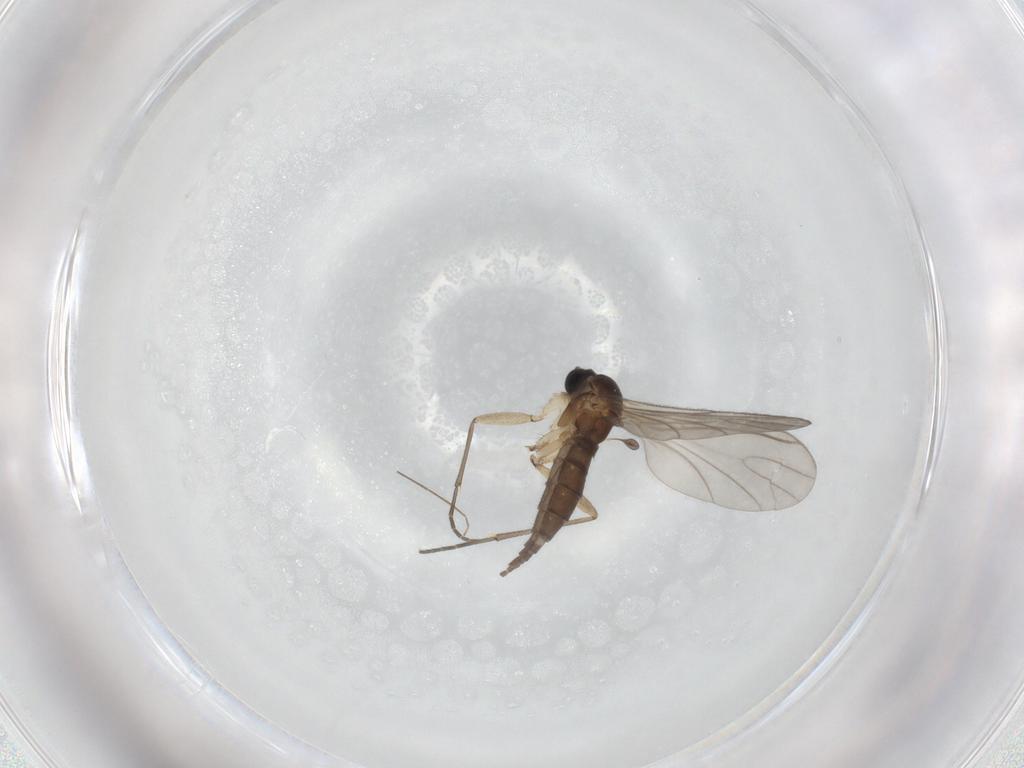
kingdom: Animalia
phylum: Arthropoda
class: Insecta
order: Diptera
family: Sciaridae
